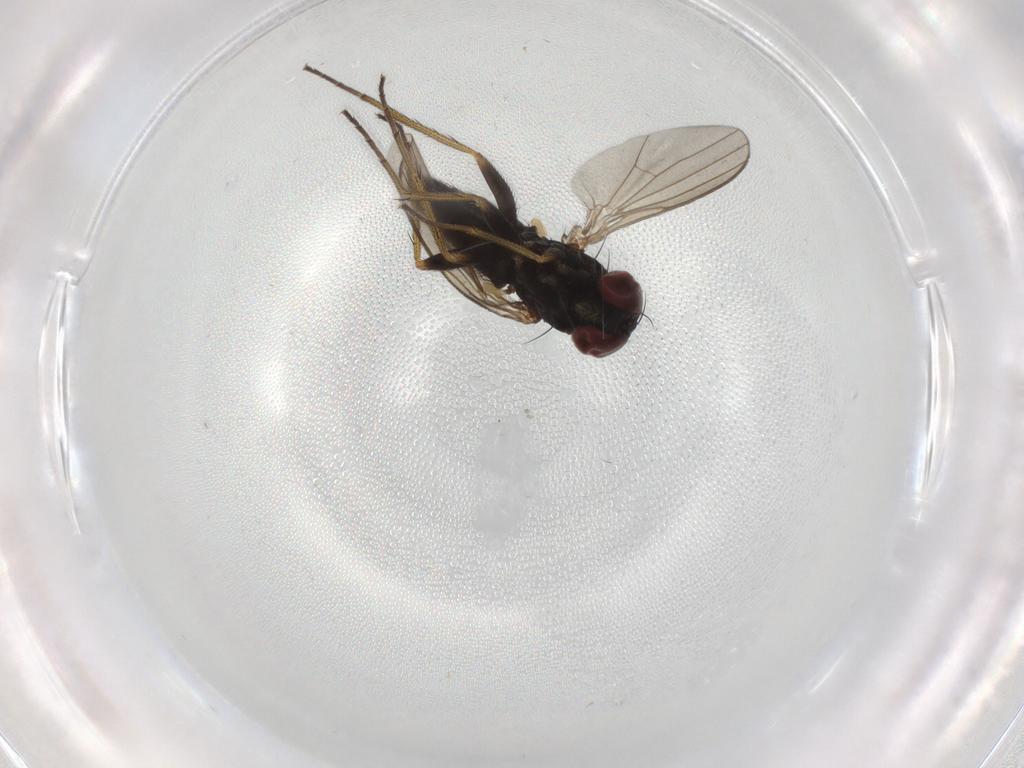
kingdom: Animalia
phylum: Arthropoda
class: Insecta
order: Diptera
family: Dolichopodidae
